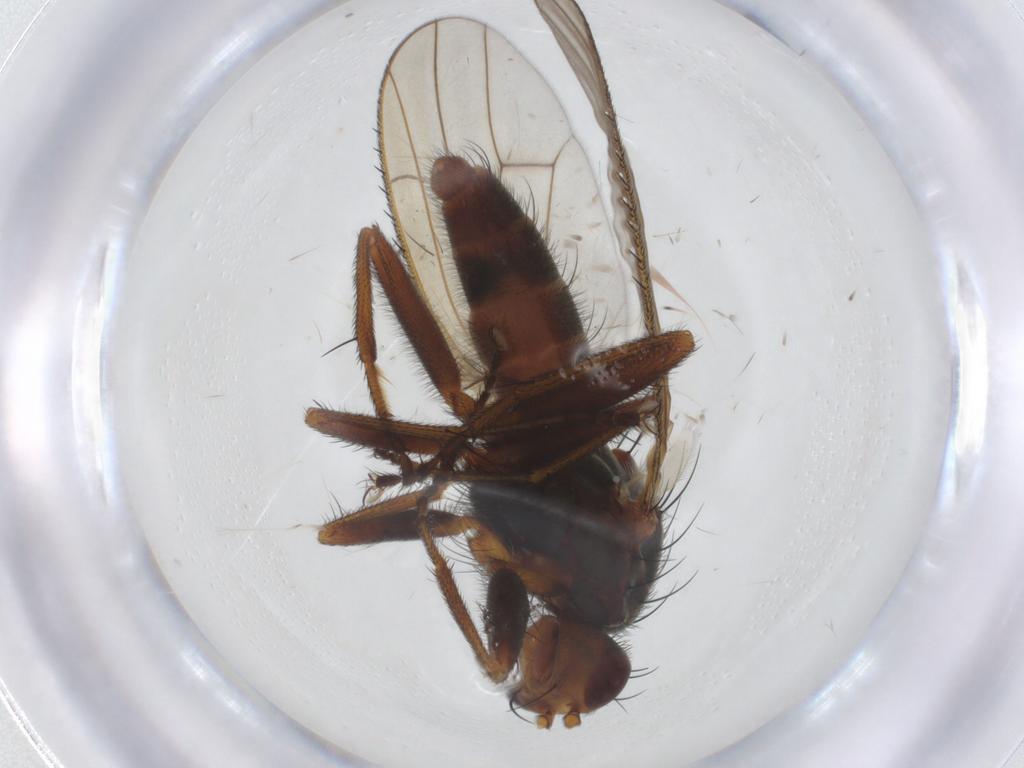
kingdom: Animalia
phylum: Arthropoda
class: Insecta
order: Diptera
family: Heleomyzidae
